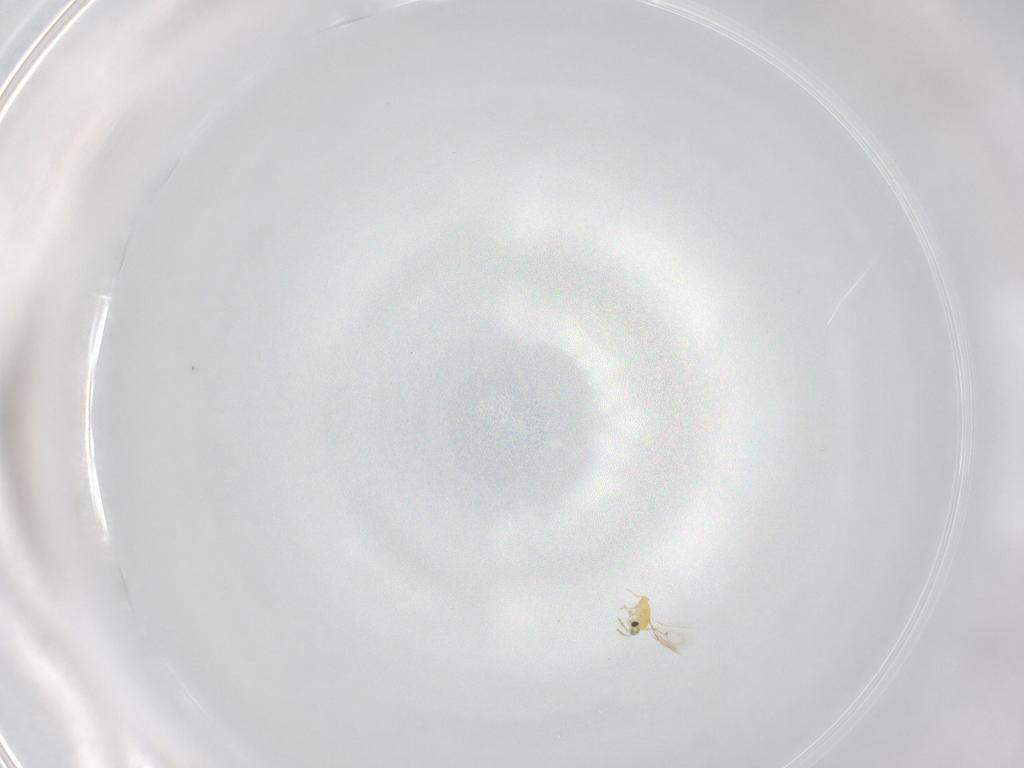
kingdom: Animalia
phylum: Arthropoda
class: Insecta
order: Hymenoptera
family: Trichogrammatidae
